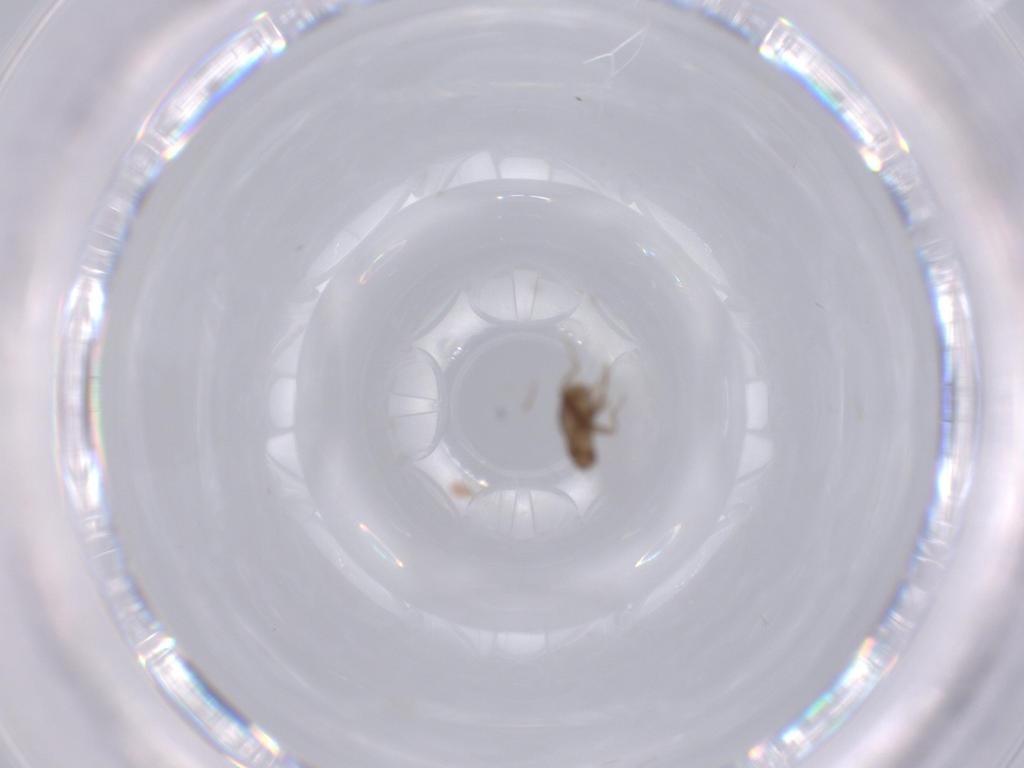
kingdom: Animalia
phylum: Arthropoda
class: Insecta
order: Diptera
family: Phoridae
